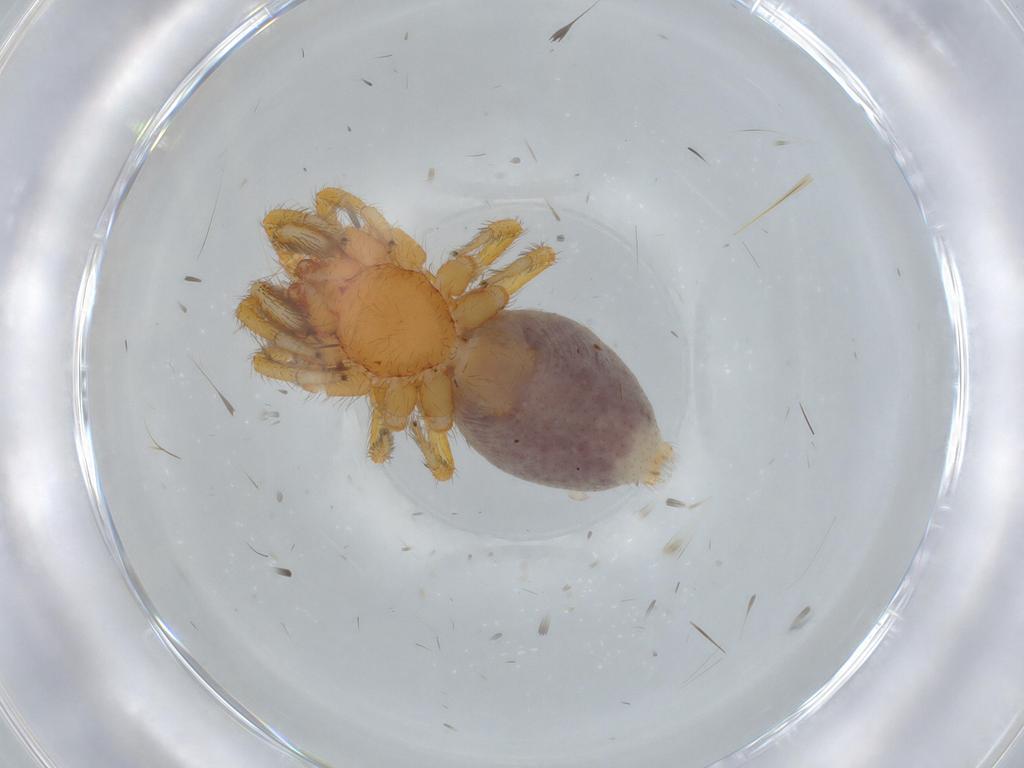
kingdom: Animalia
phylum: Arthropoda
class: Arachnida
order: Araneae
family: Caponiidae
